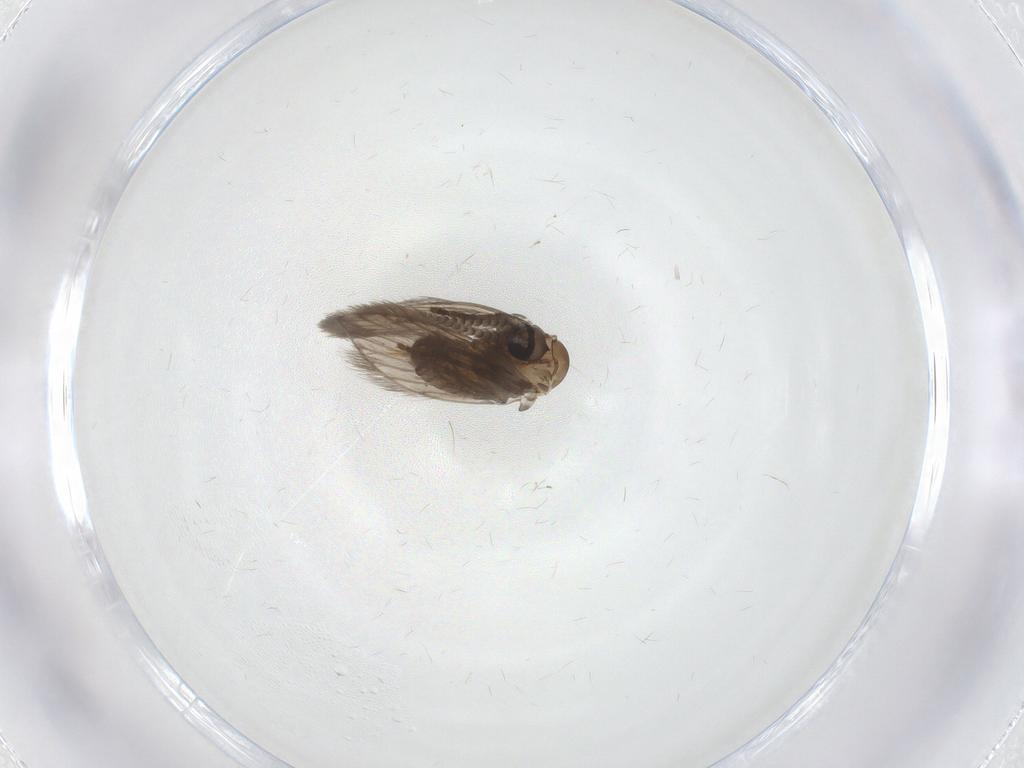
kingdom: Animalia
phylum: Arthropoda
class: Insecta
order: Diptera
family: Psychodidae
